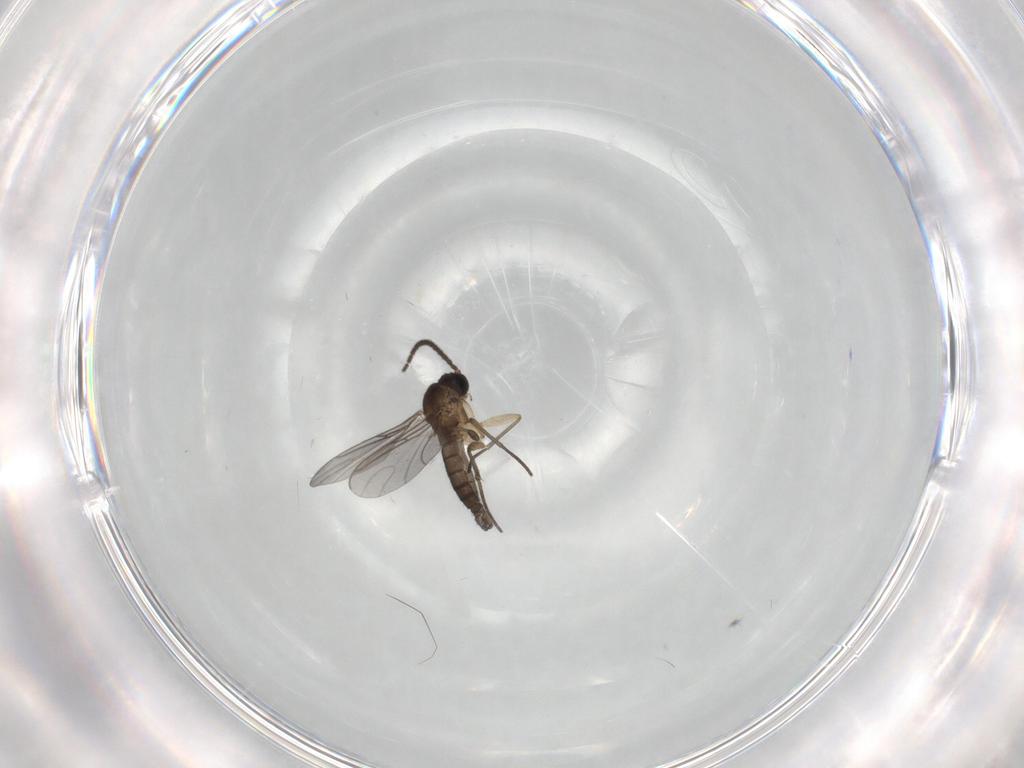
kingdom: Animalia
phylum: Arthropoda
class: Insecta
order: Diptera
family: Sciaridae
